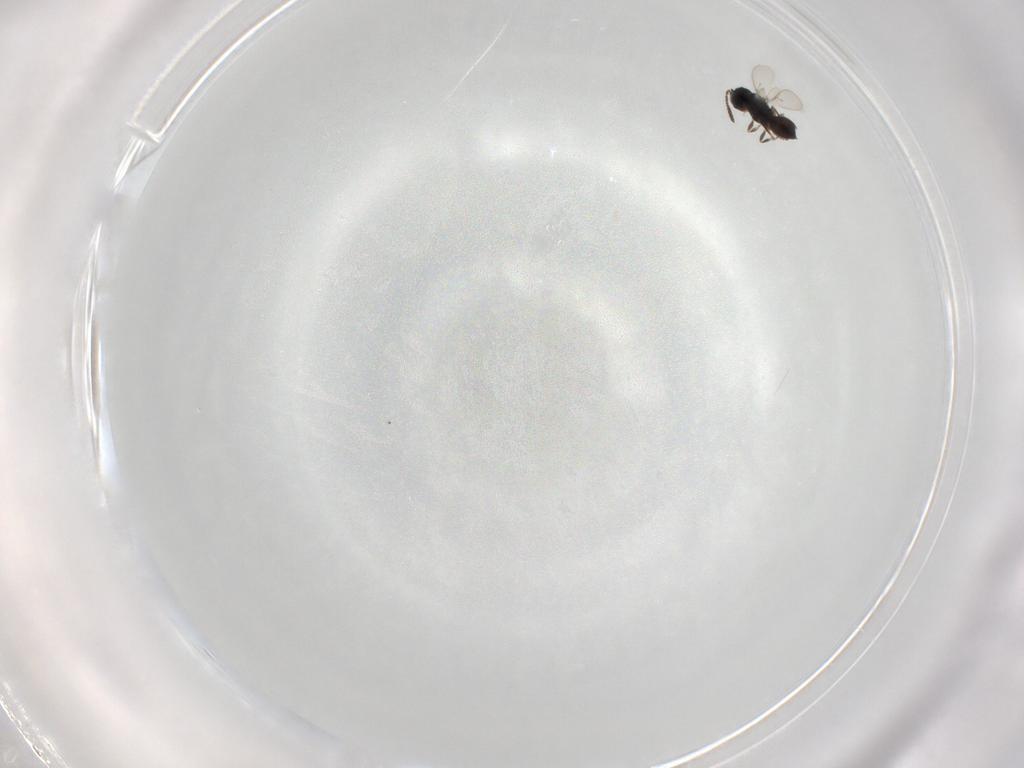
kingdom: Animalia
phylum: Arthropoda
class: Insecta
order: Hymenoptera
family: Scelionidae
